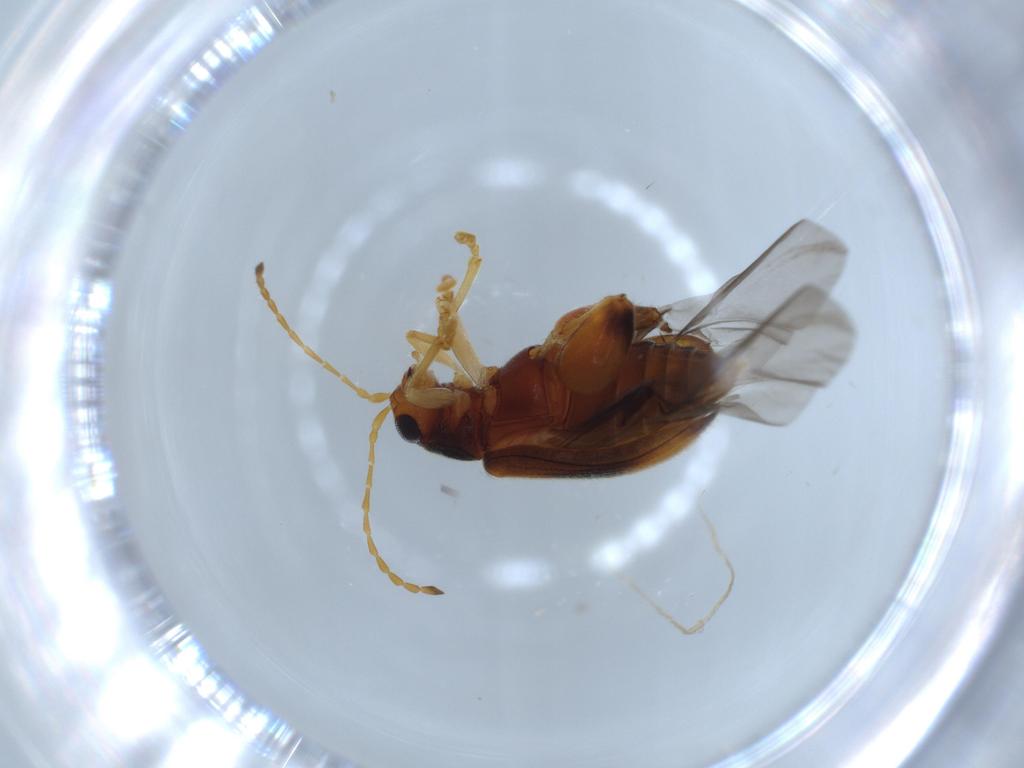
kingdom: Animalia
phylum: Arthropoda
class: Insecta
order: Coleoptera
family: Chrysomelidae
